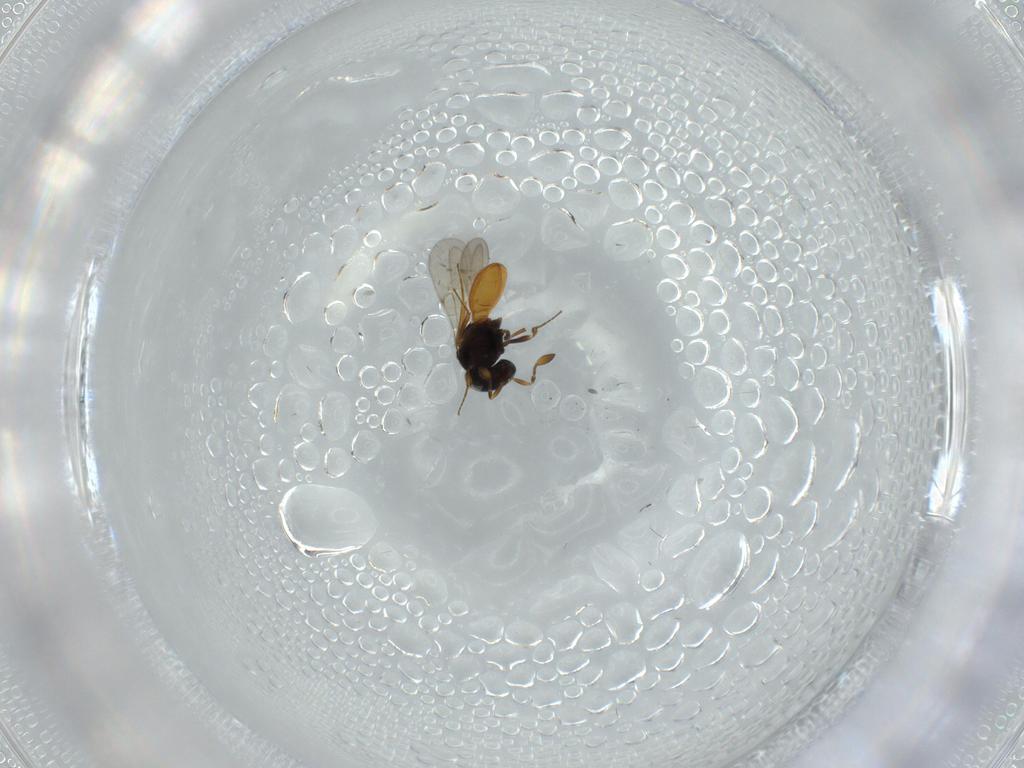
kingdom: Animalia
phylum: Arthropoda
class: Insecta
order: Hymenoptera
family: Scelionidae
